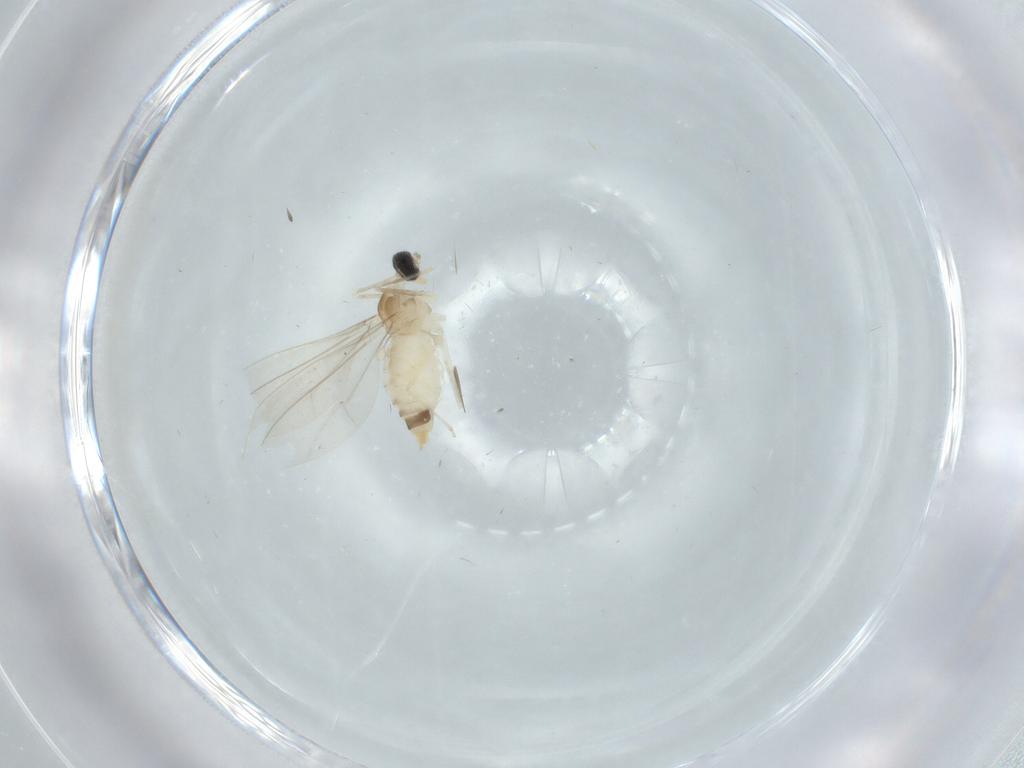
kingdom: Animalia
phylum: Arthropoda
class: Insecta
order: Diptera
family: Cecidomyiidae
